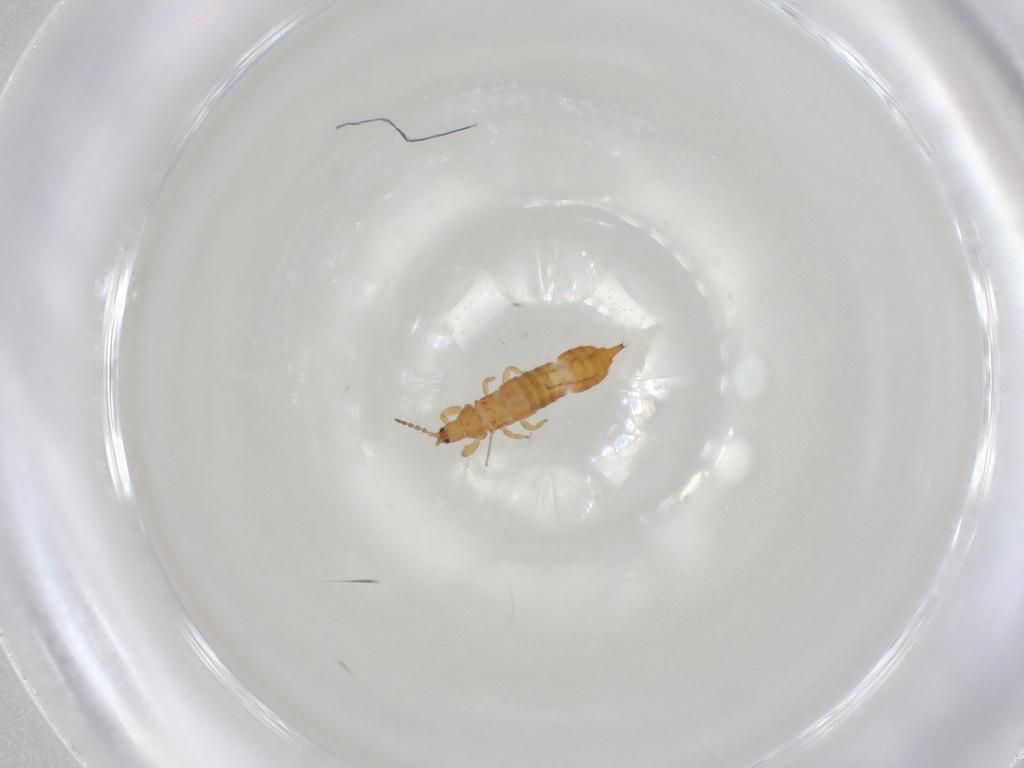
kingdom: Animalia
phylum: Arthropoda
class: Insecta
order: Thysanoptera
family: Phlaeothripidae
